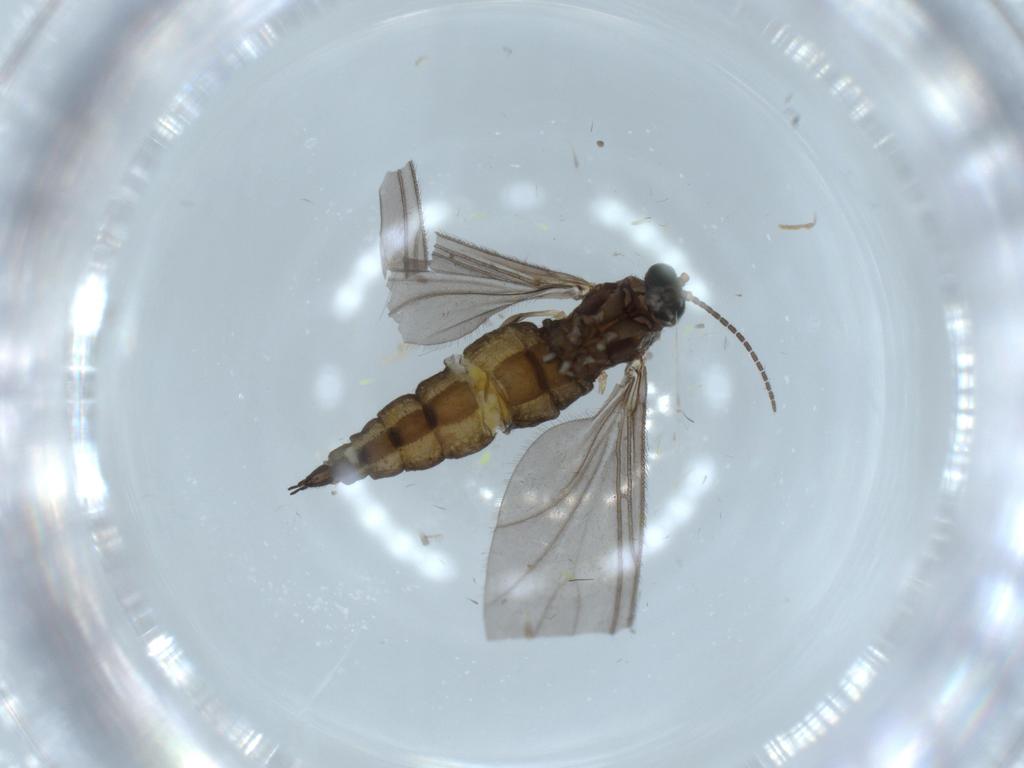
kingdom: Animalia
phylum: Arthropoda
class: Insecta
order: Diptera
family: Sciaridae
